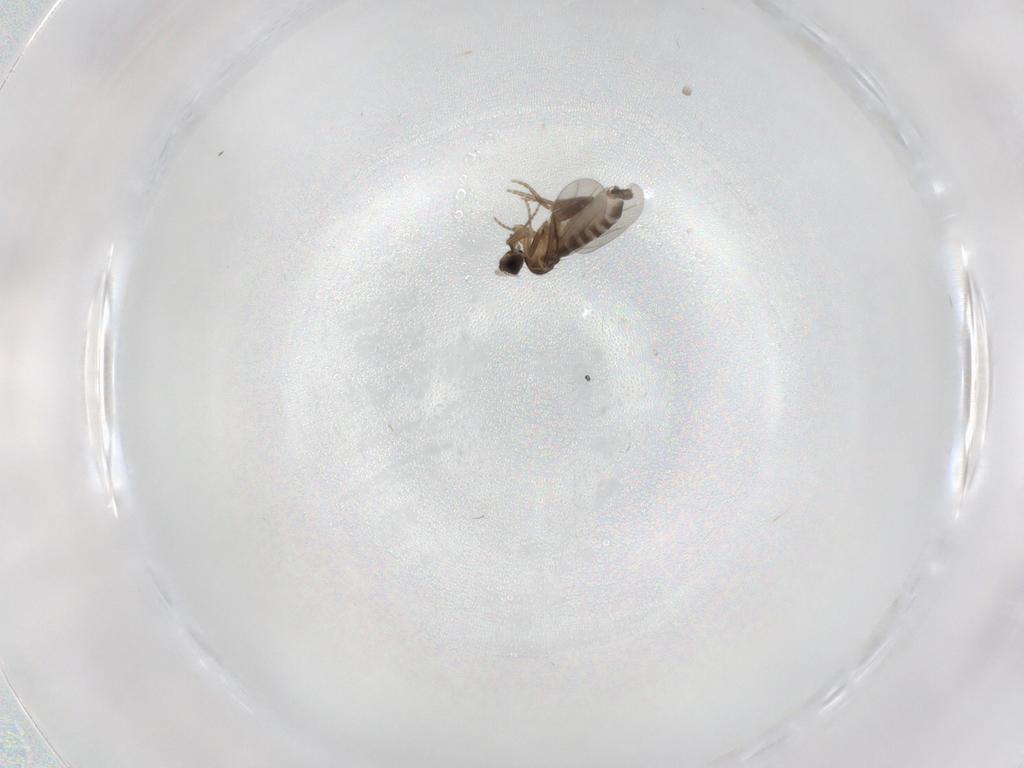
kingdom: Animalia
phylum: Arthropoda
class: Insecta
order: Diptera
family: Cecidomyiidae
